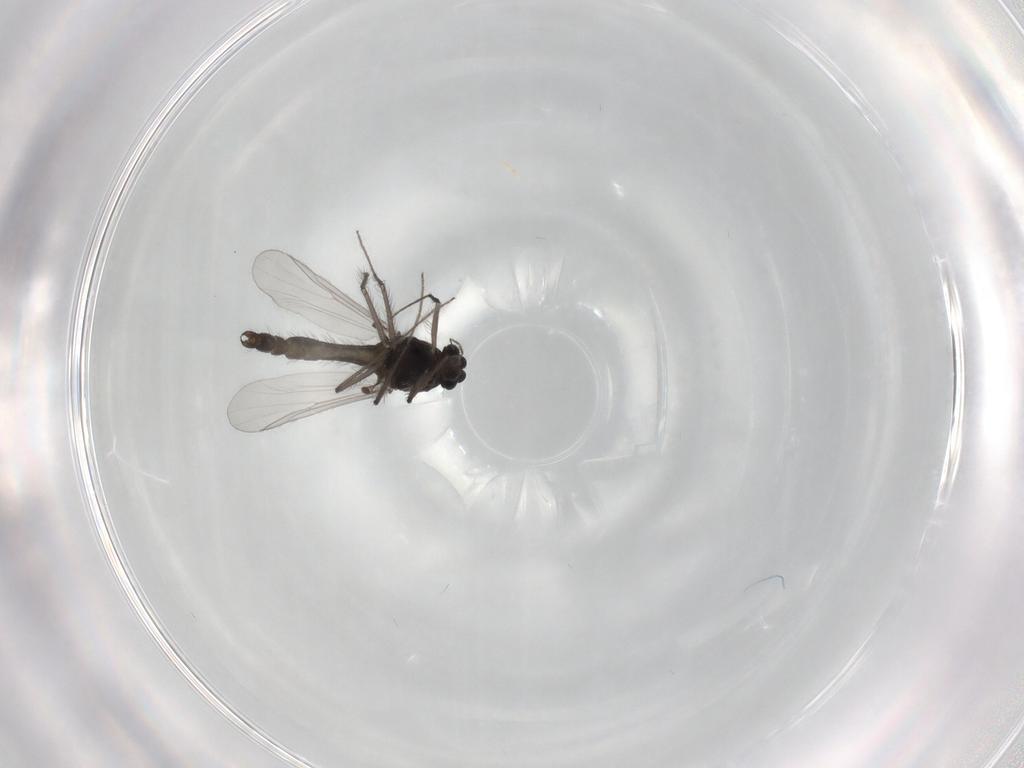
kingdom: Animalia
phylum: Arthropoda
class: Insecta
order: Diptera
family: Chironomidae
